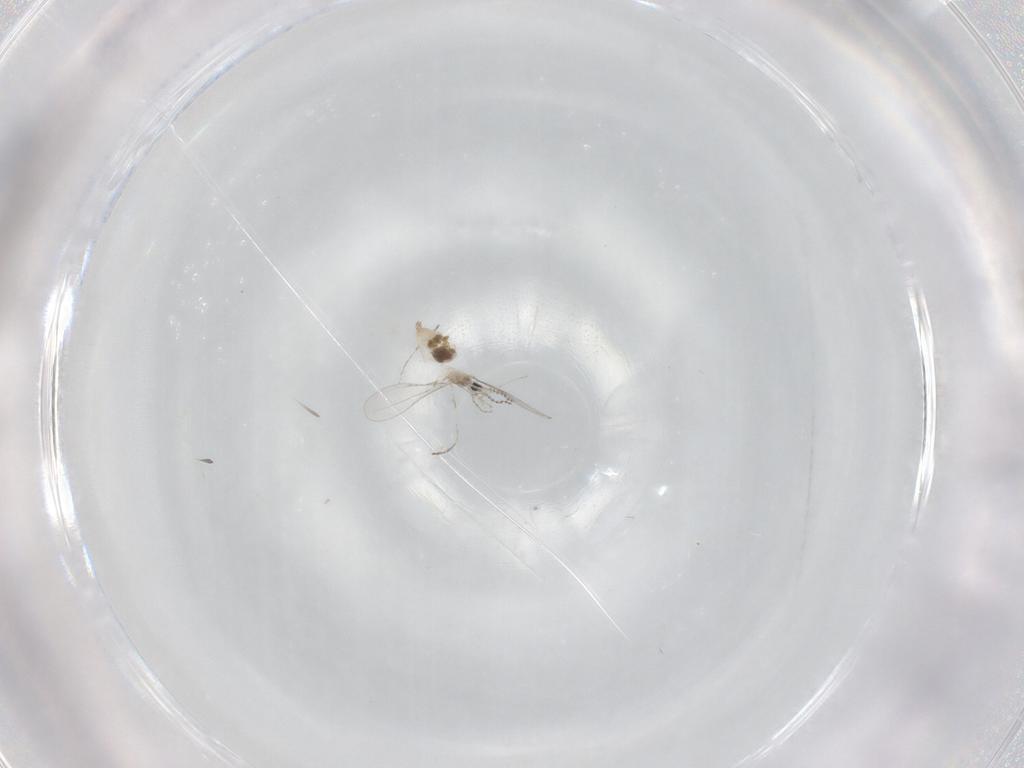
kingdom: Animalia
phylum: Arthropoda
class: Insecta
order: Diptera
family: Cecidomyiidae
